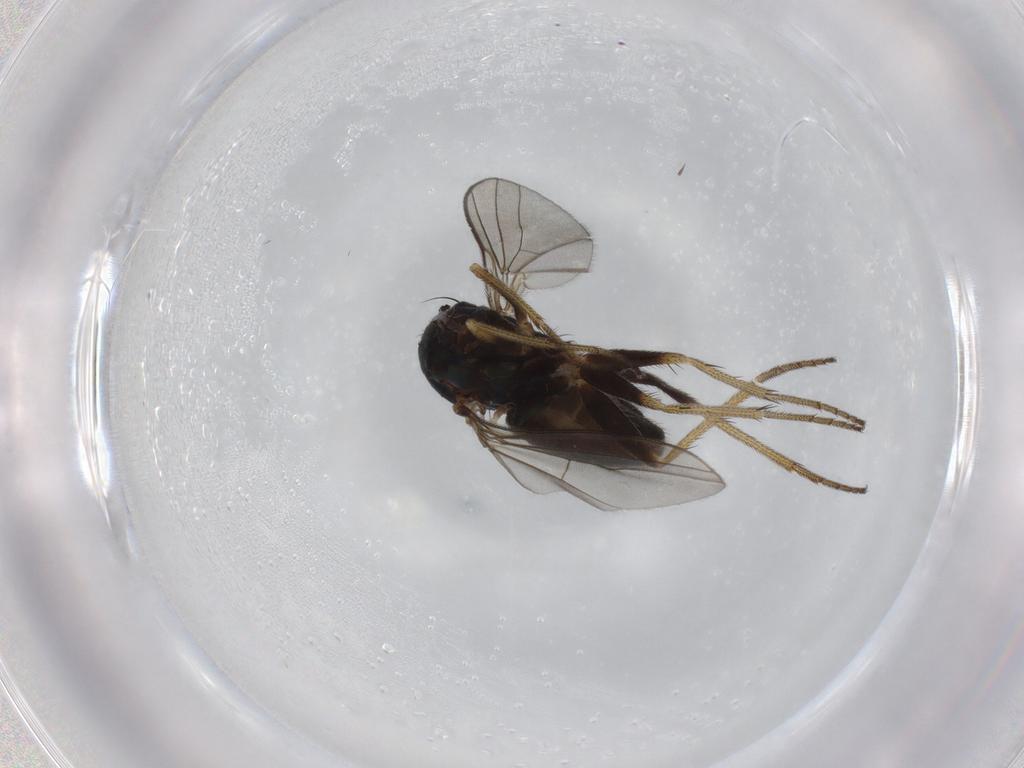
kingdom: Animalia
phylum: Arthropoda
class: Insecta
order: Diptera
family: Dolichopodidae
